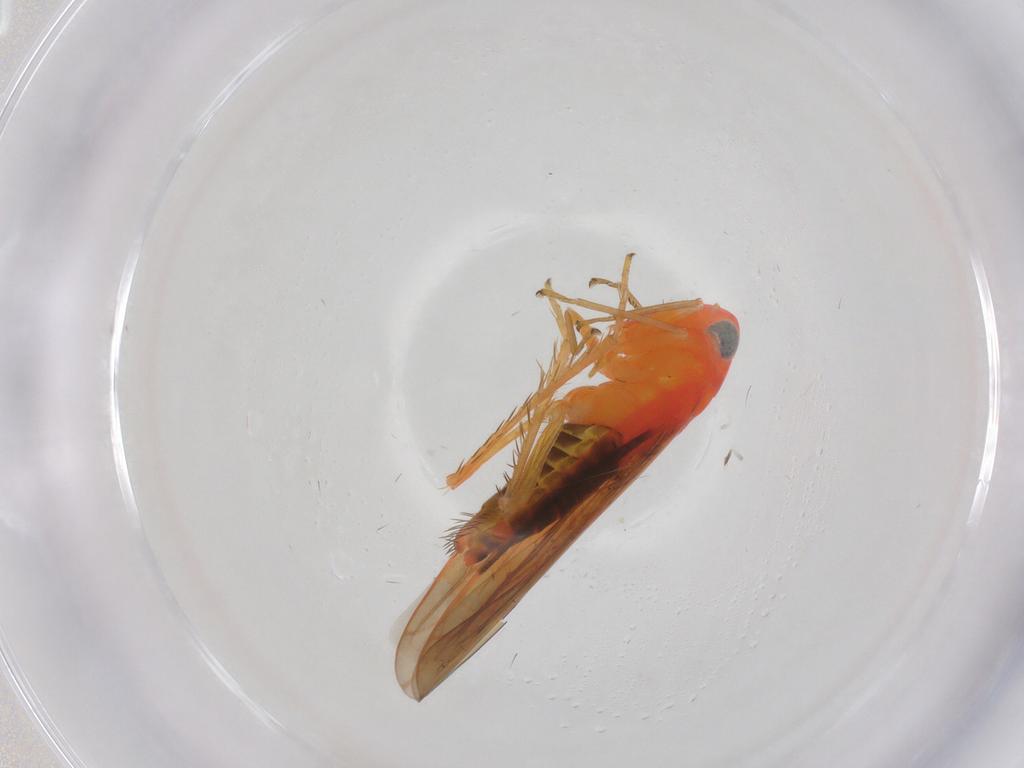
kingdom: Animalia
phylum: Arthropoda
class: Insecta
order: Hemiptera
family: Cicadellidae
